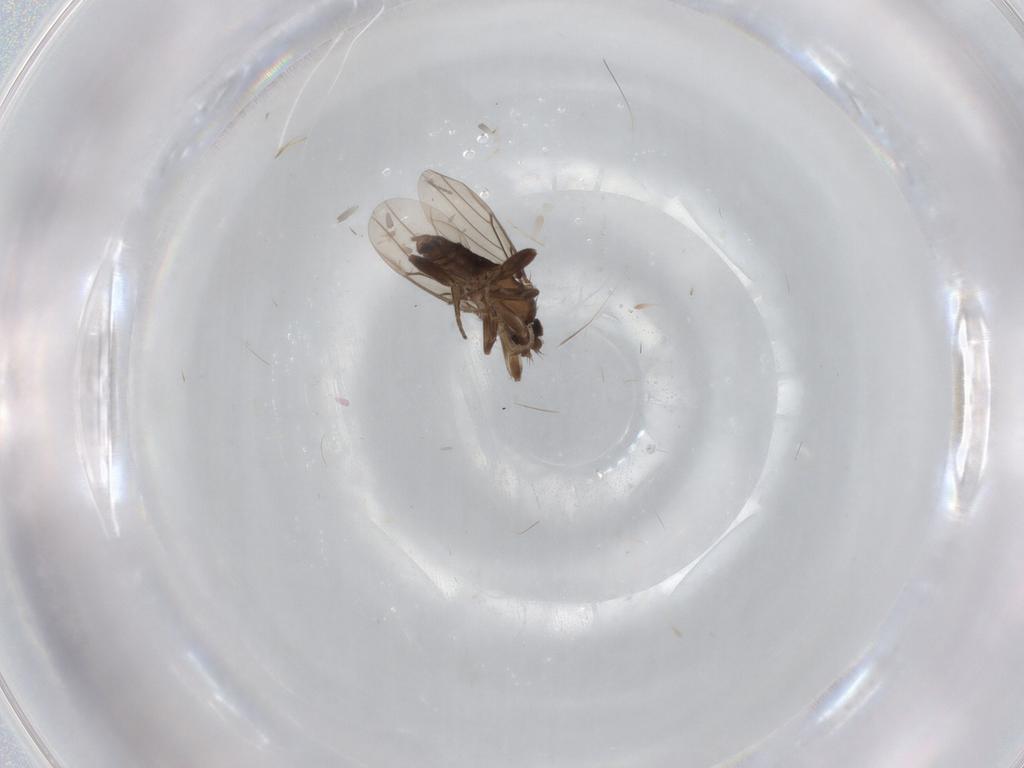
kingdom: Animalia
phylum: Arthropoda
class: Insecta
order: Diptera
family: Phoridae
